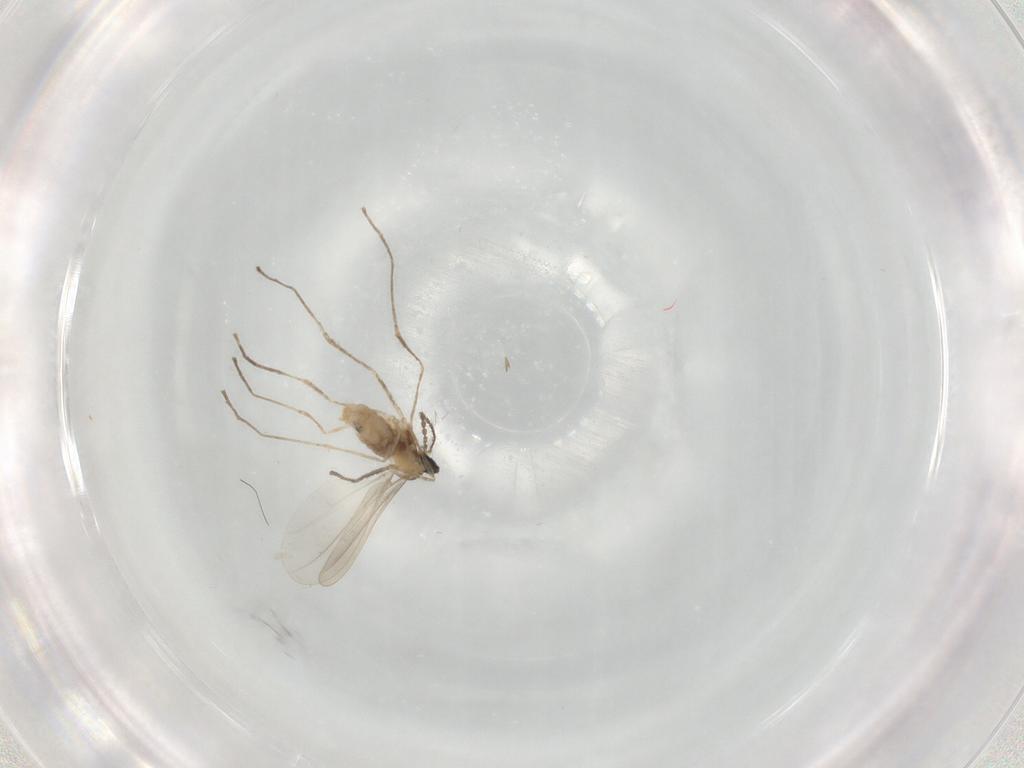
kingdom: Animalia
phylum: Arthropoda
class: Insecta
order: Diptera
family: Cecidomyiidae
